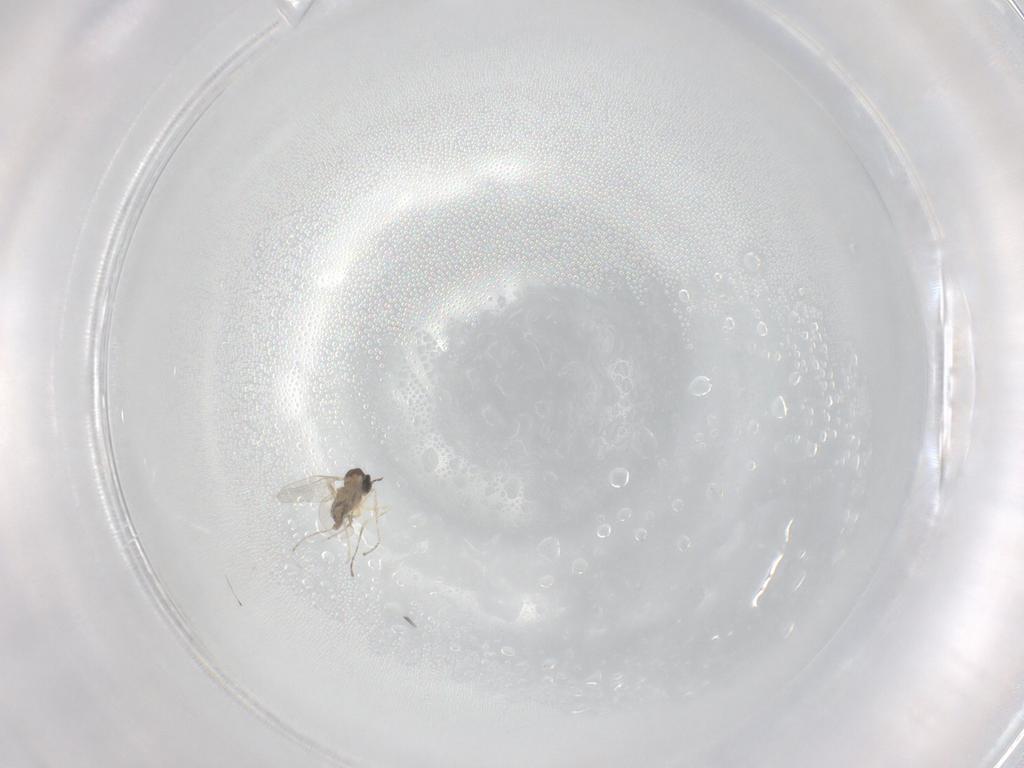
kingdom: Animalia
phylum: Arthropoda
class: Insecta
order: Diptera
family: Cecidomyiidae
